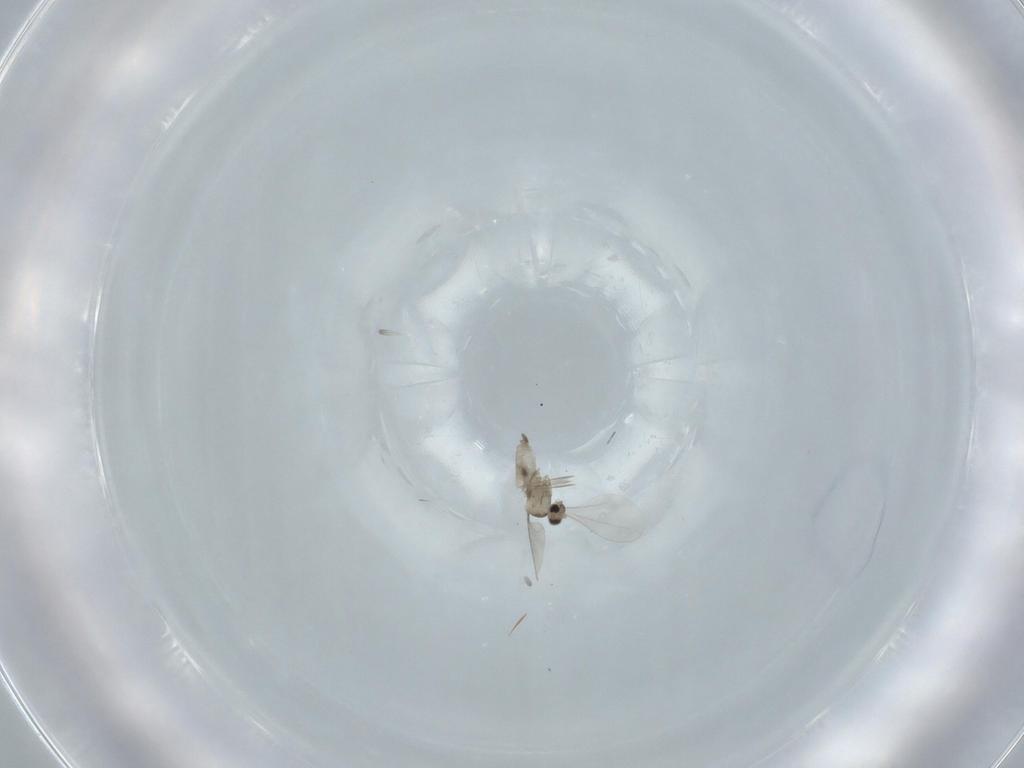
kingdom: Animalia
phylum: Arthropoda
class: Insecta
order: Diptera
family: Cecidomyiidae
